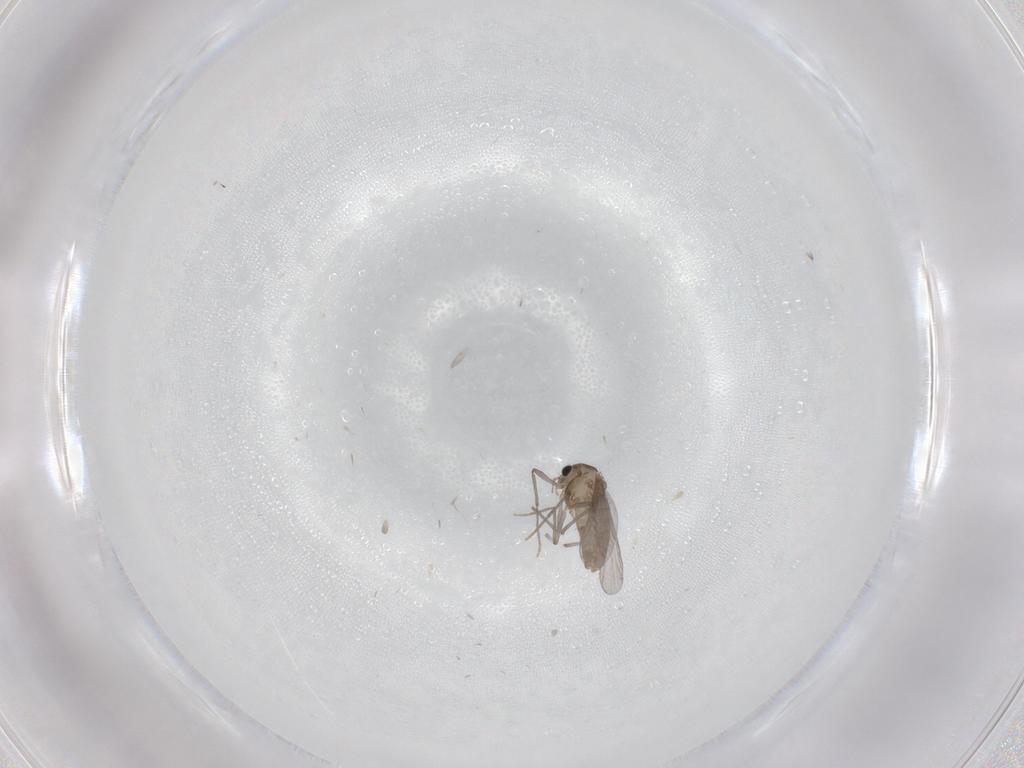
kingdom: Animalia
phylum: Arthropoda
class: Insecta
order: Diptera
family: Chironomidae
